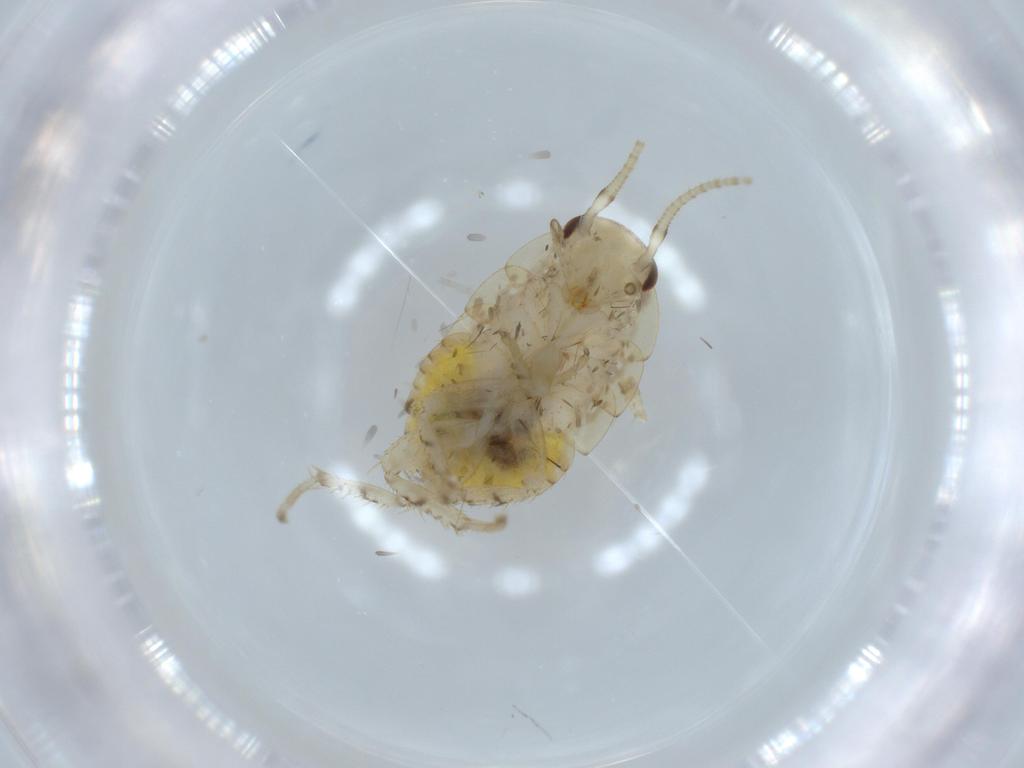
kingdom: Animalia
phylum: Arthropoda
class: Insecta
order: Blattodea
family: Ectobiidae
